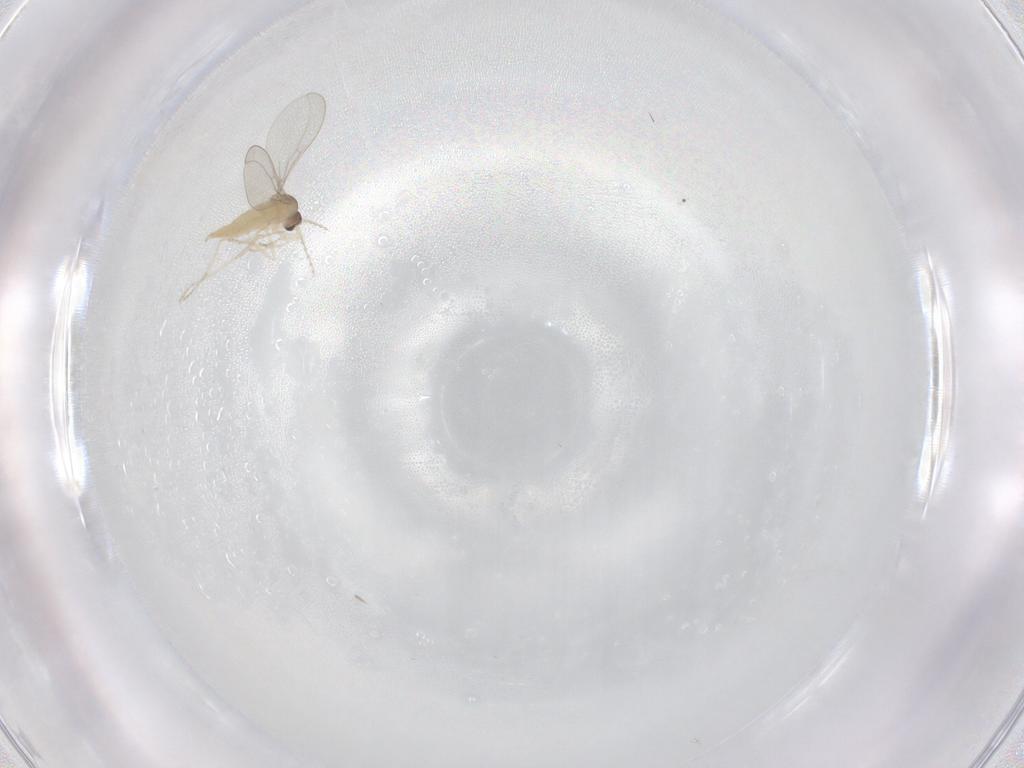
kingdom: Animalia
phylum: Arthropoda
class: Insecta
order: Diptera
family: Cecidomyiidae
